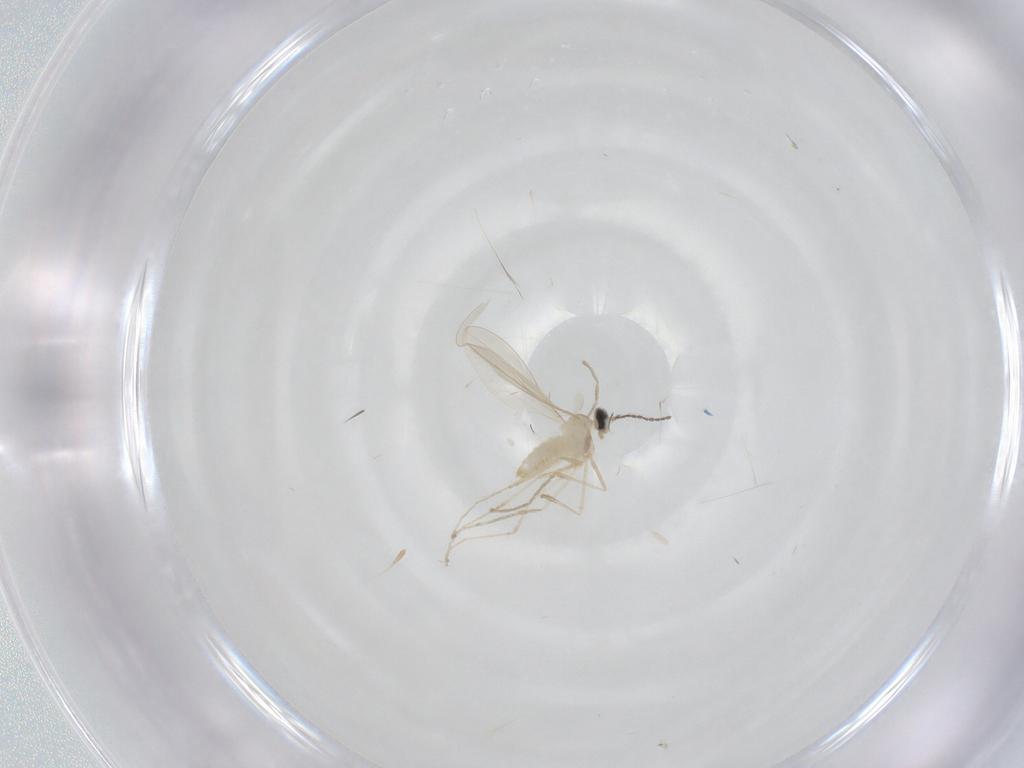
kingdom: Animalia
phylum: Arthropoda
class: Insecta
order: Diptera
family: Cecidomyiidae
